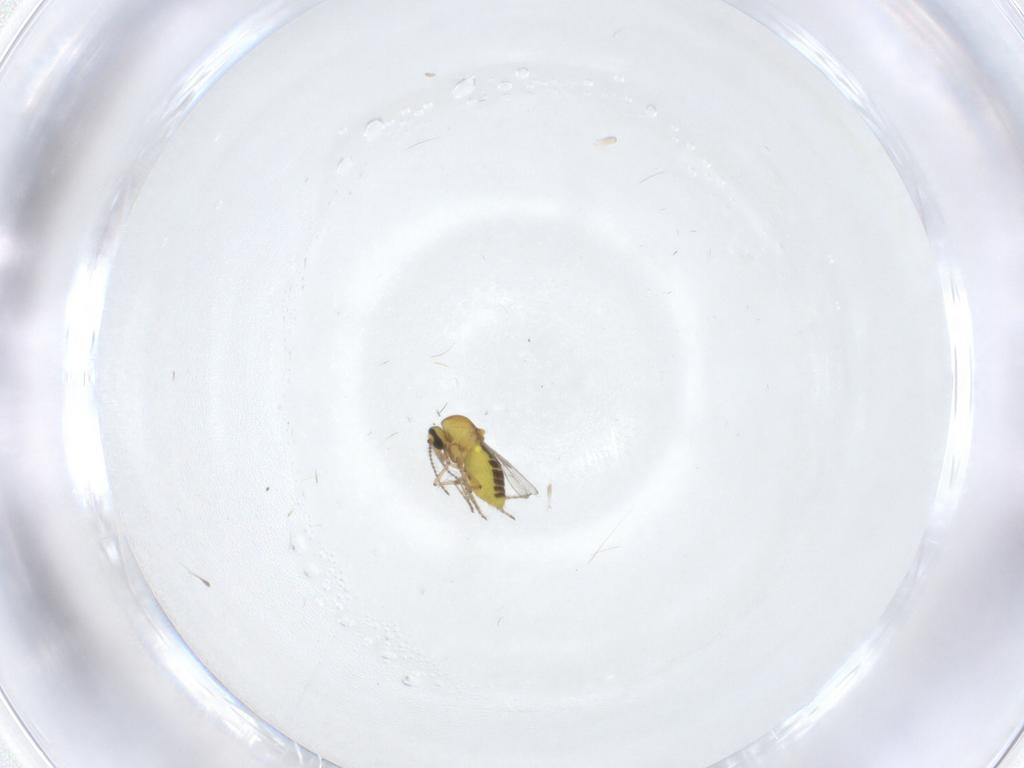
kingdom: Animalia
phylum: Arthropoda
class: Insecta
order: Diptera
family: Ceratopogonidae
